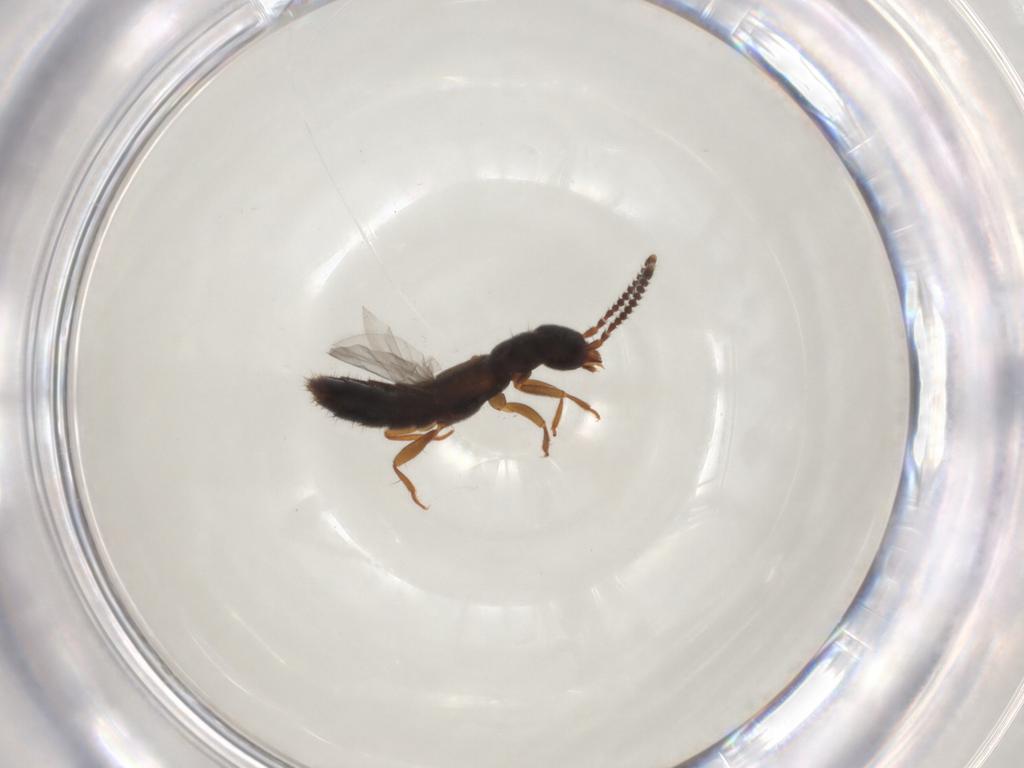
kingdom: Animalia
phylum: Arthropoda
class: Insecta
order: Coleoptera
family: Staphylinidae
